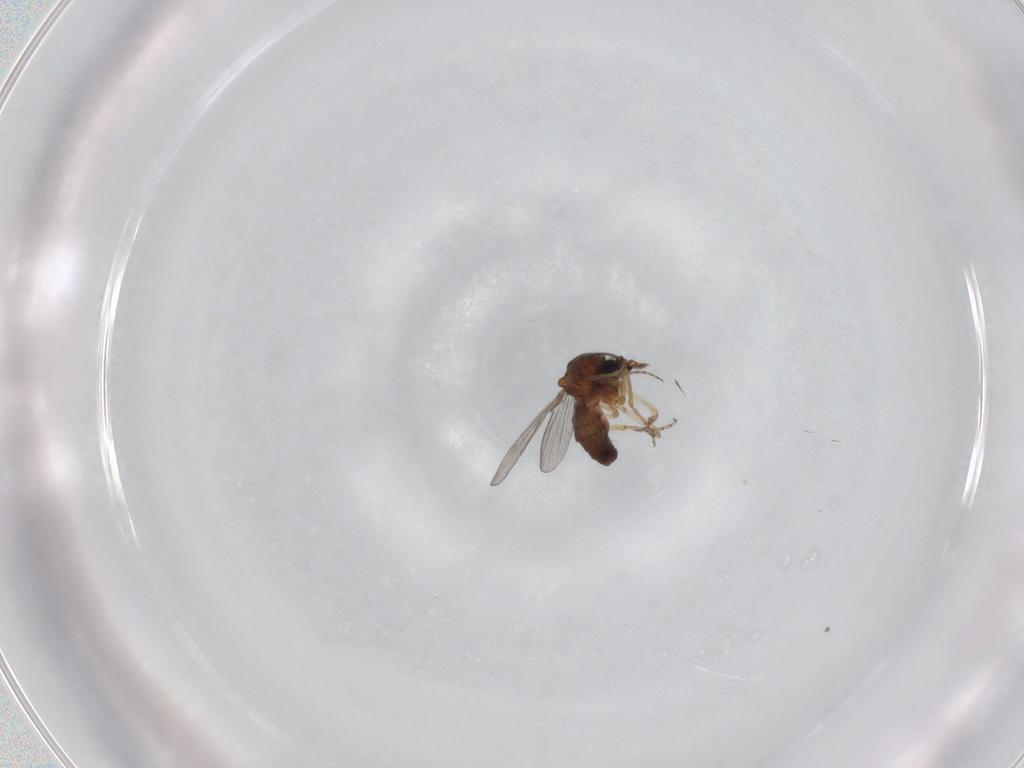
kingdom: Animalia
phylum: Arthropoda
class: Insecta
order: Diptera
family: Ceratopogonidae
